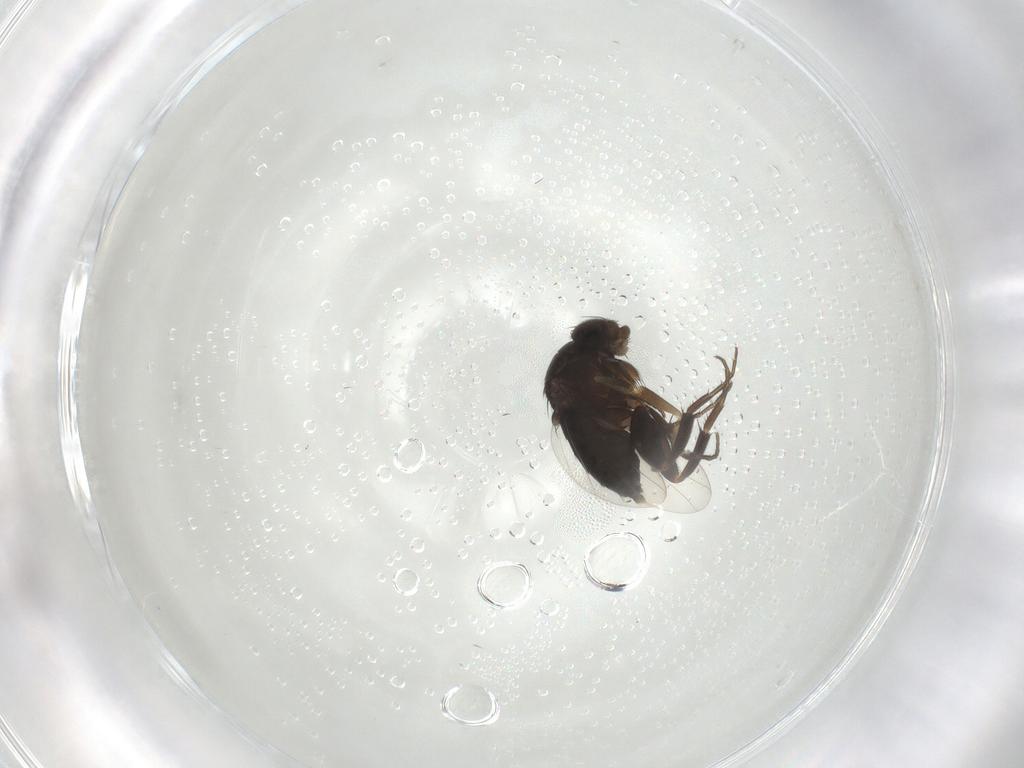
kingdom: Animalia
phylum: Arthropoda
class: Insecta
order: Diptera
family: Phoridae
